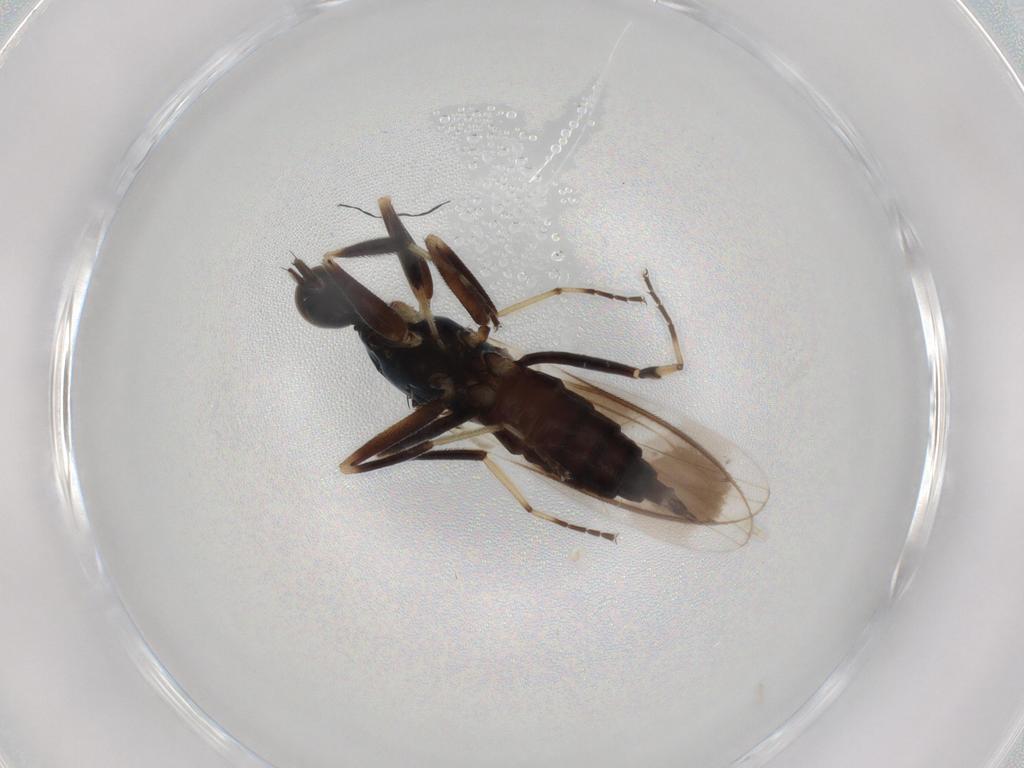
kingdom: Animalia
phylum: Arthropoda
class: Insecta
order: Diptera
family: Hybotidae
